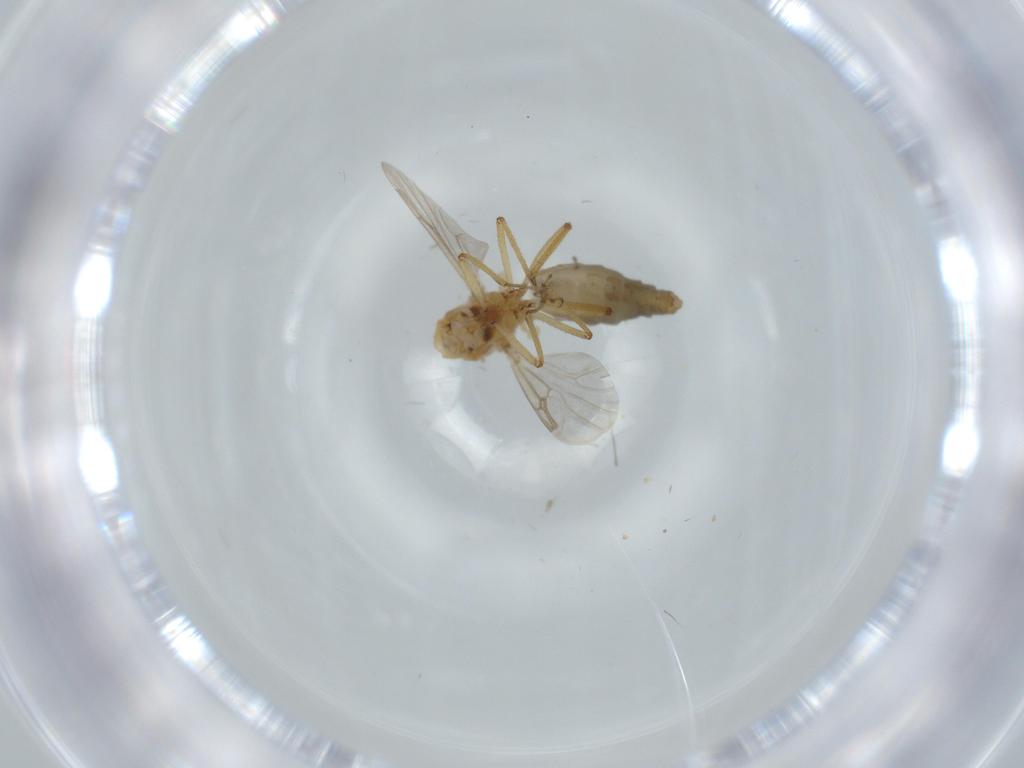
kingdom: Animalia
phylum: Arthropoda
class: Insecta
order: Diptera
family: Ceratopogonidae
